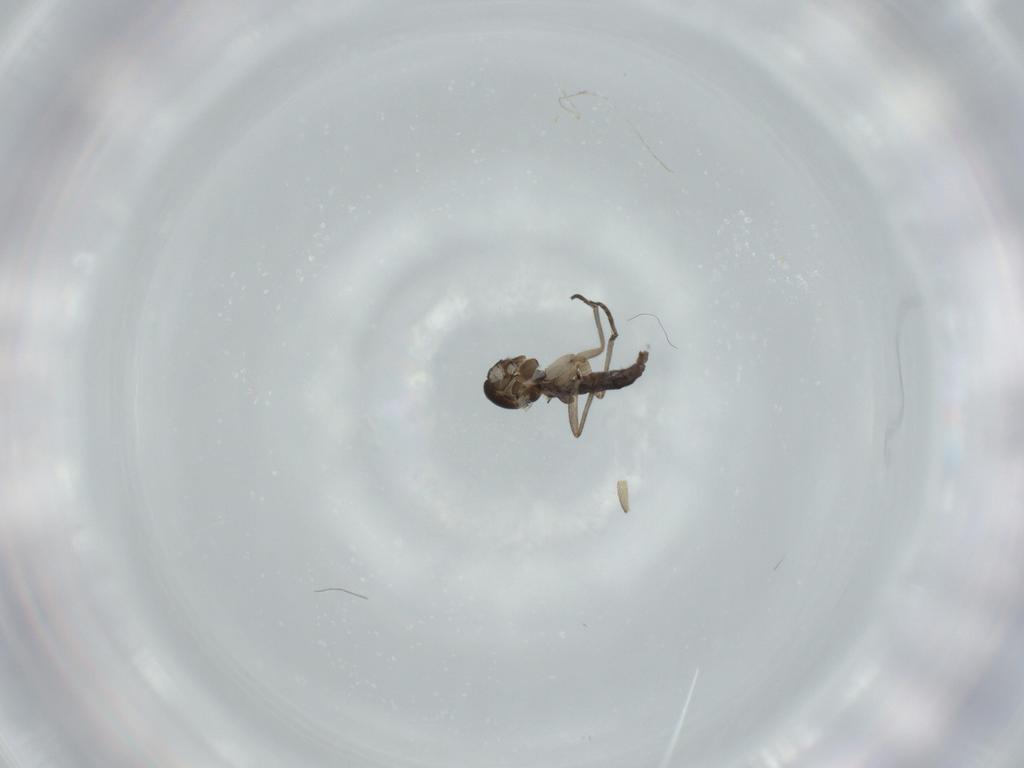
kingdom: Animalia
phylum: Arthropoda
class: Insecta
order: Diptera
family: Sciaridae
